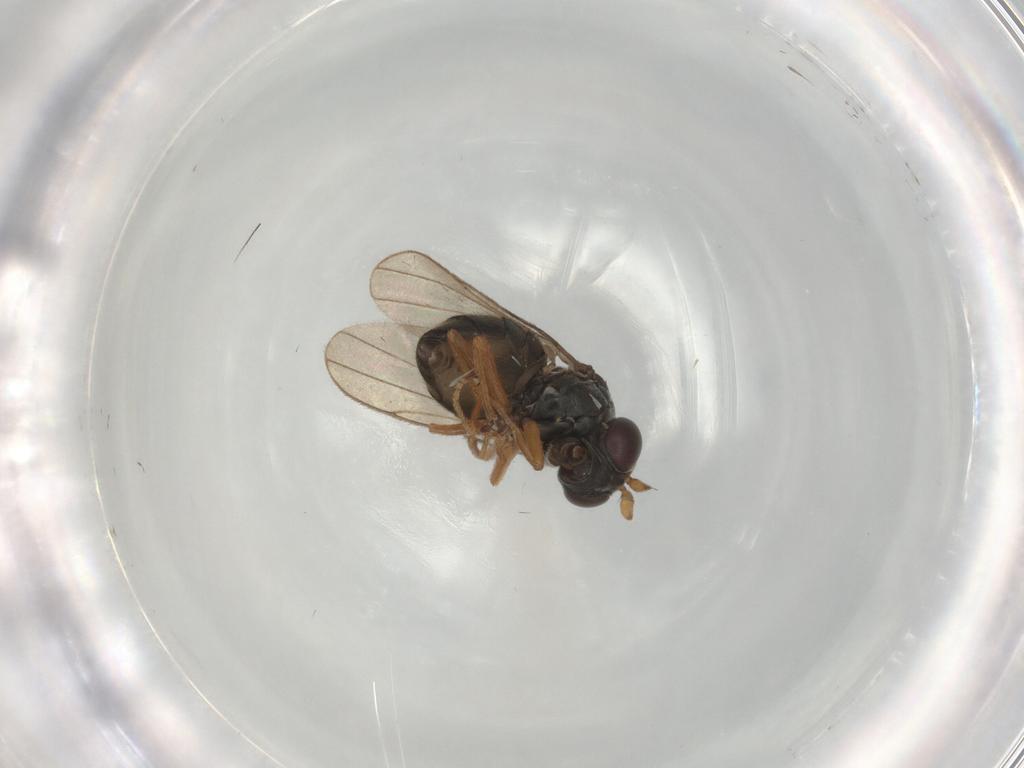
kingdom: Animalia
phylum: Arthropoda
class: Insecta
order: Diptera
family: Ephydridae
